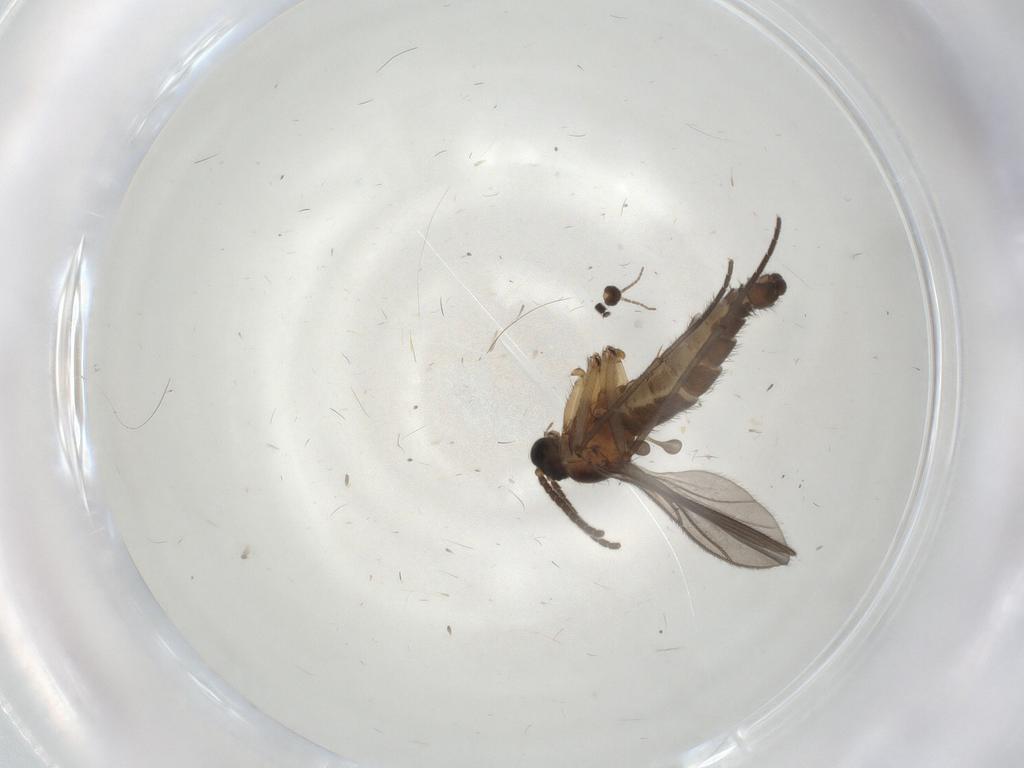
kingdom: Animalia
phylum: Arthropoda
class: Insecta
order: Diptera
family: Sciaridae
